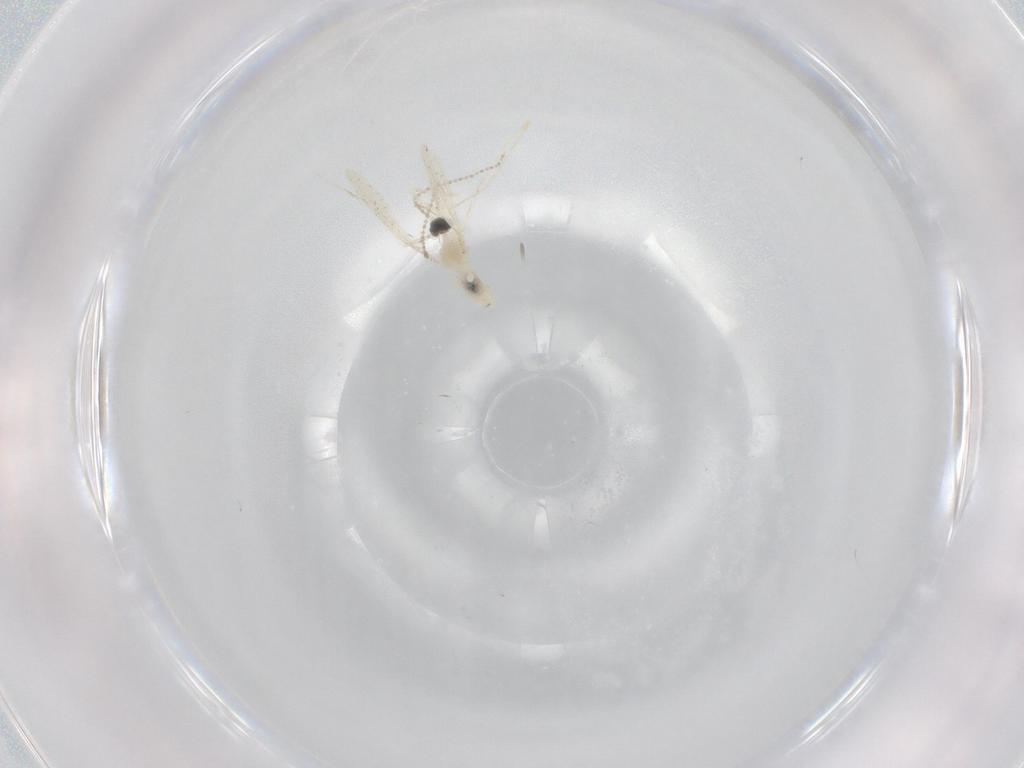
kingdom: Animalia
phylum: Arthropoda
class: Insecta
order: Diptera
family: Cecidomyiidae
